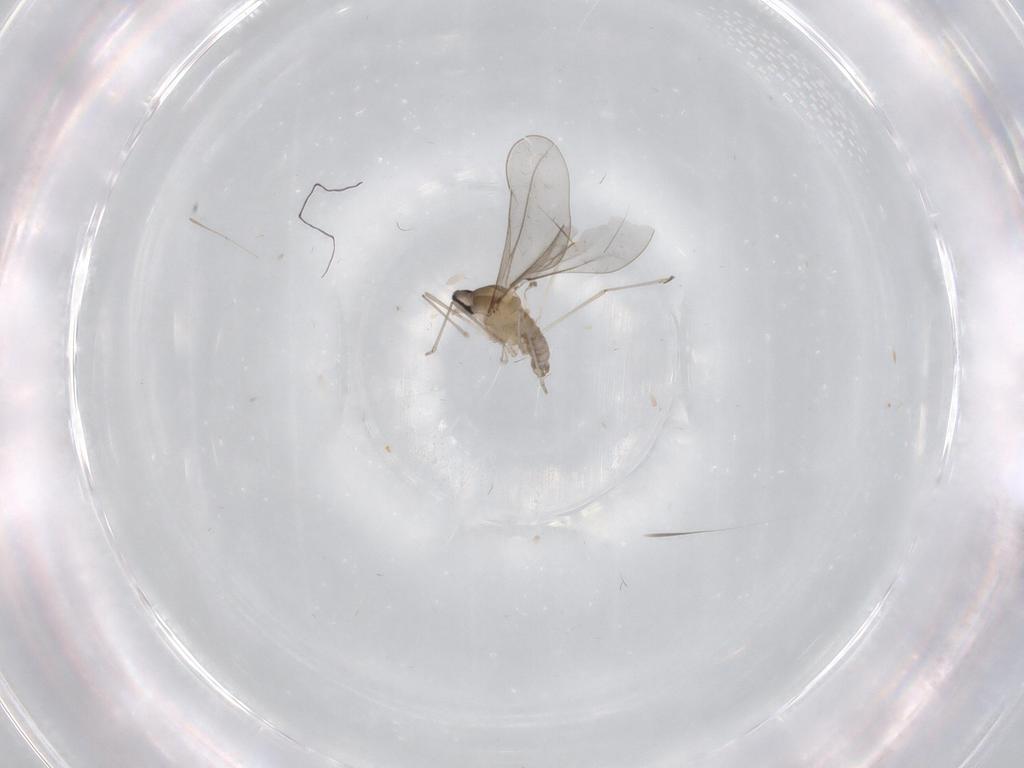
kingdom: Animalia
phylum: Arthropoda
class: Insecta
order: Diptera
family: Cecidomyiidae
